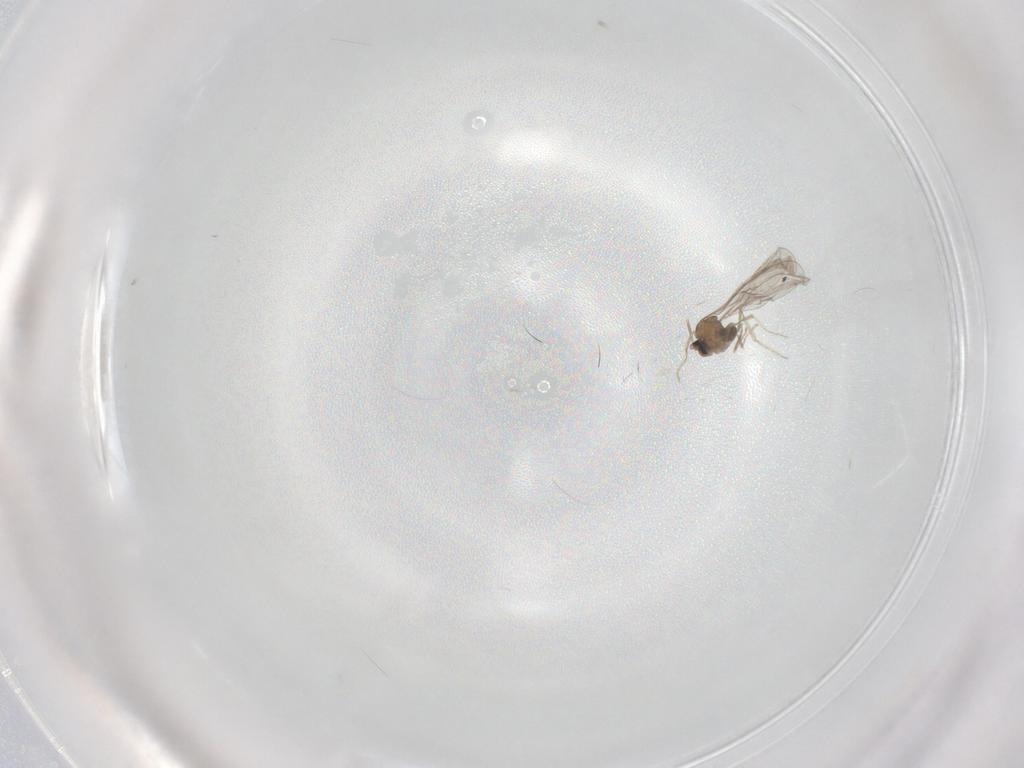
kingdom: Animalia
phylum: Arthropoda
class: Insecta
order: Diptera
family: Cecidomyiidae
